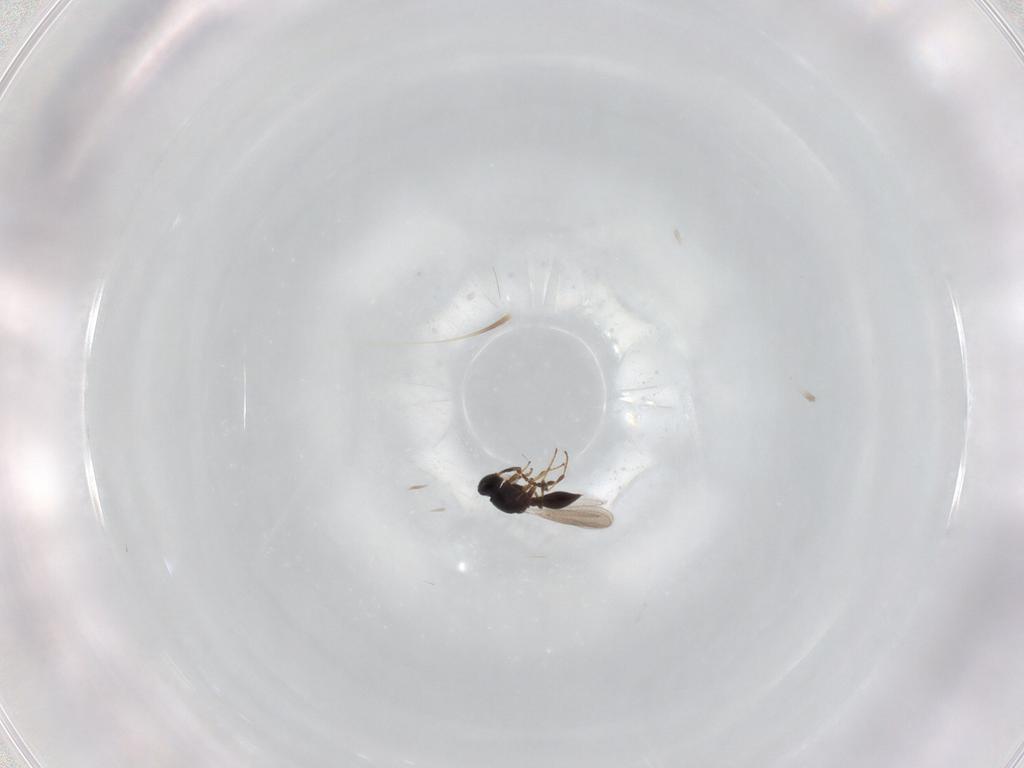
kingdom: Animalia
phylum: Arthropoda
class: Insecta
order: Hymenoptera
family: Platygastridae
